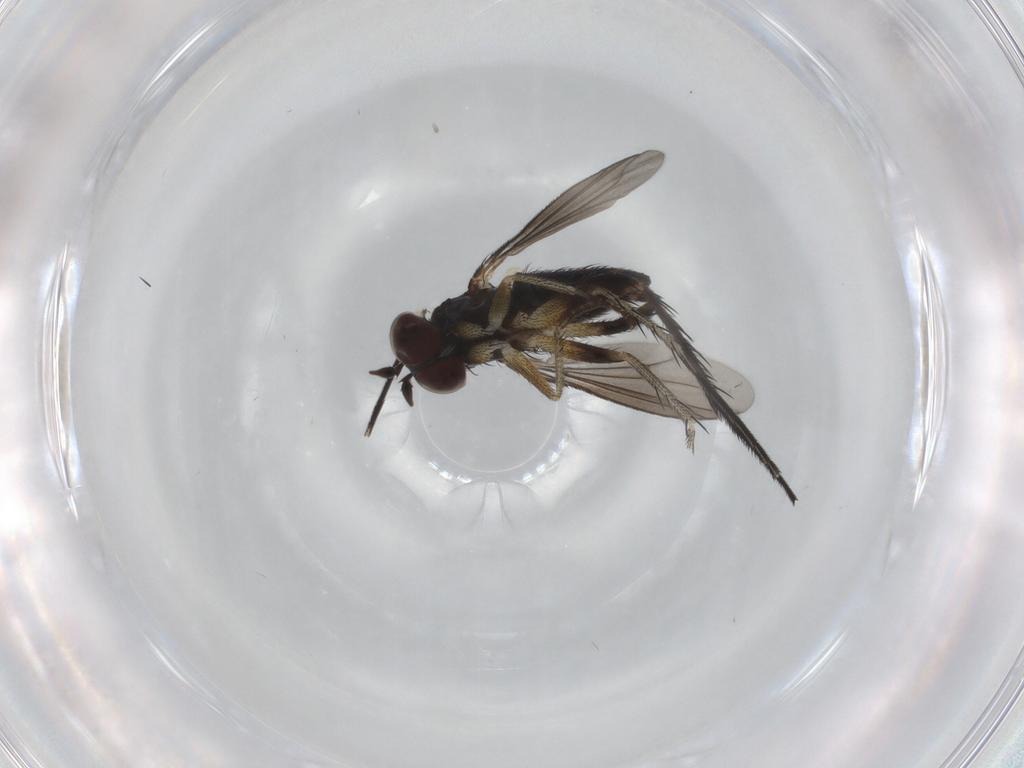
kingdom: Animalia
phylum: Arthropoda
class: Insecta
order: Diptera
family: Dolichopodidae
